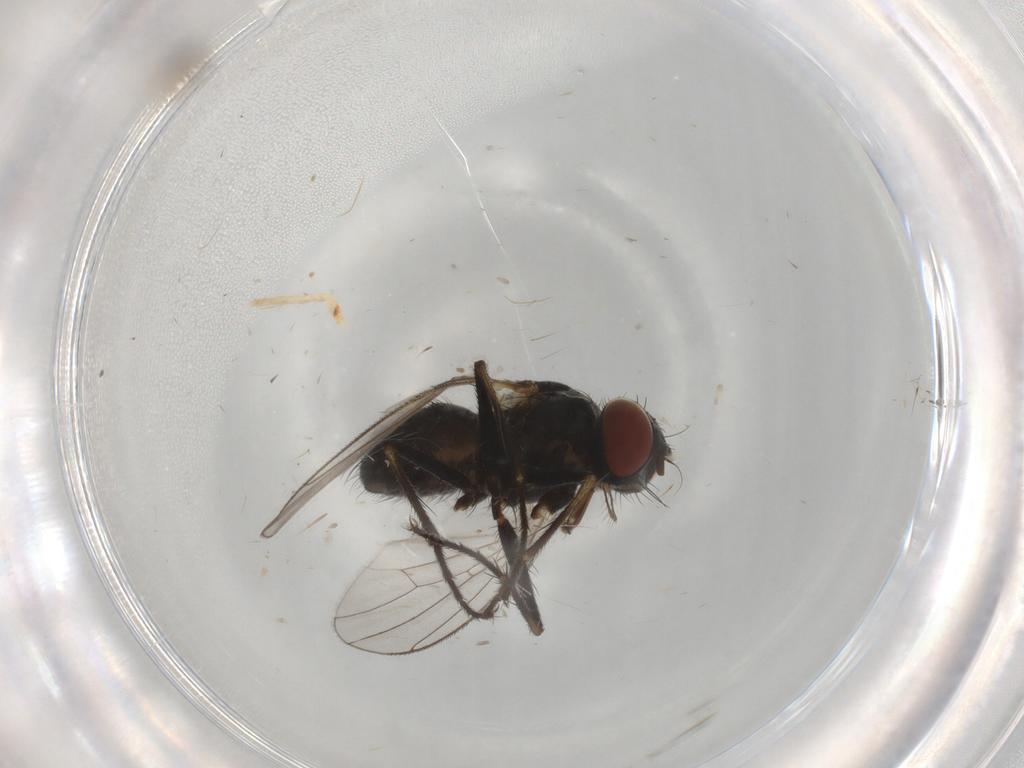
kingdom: Animalia
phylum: Arthropoda
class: Insecta
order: Diptera
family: Muscidae
